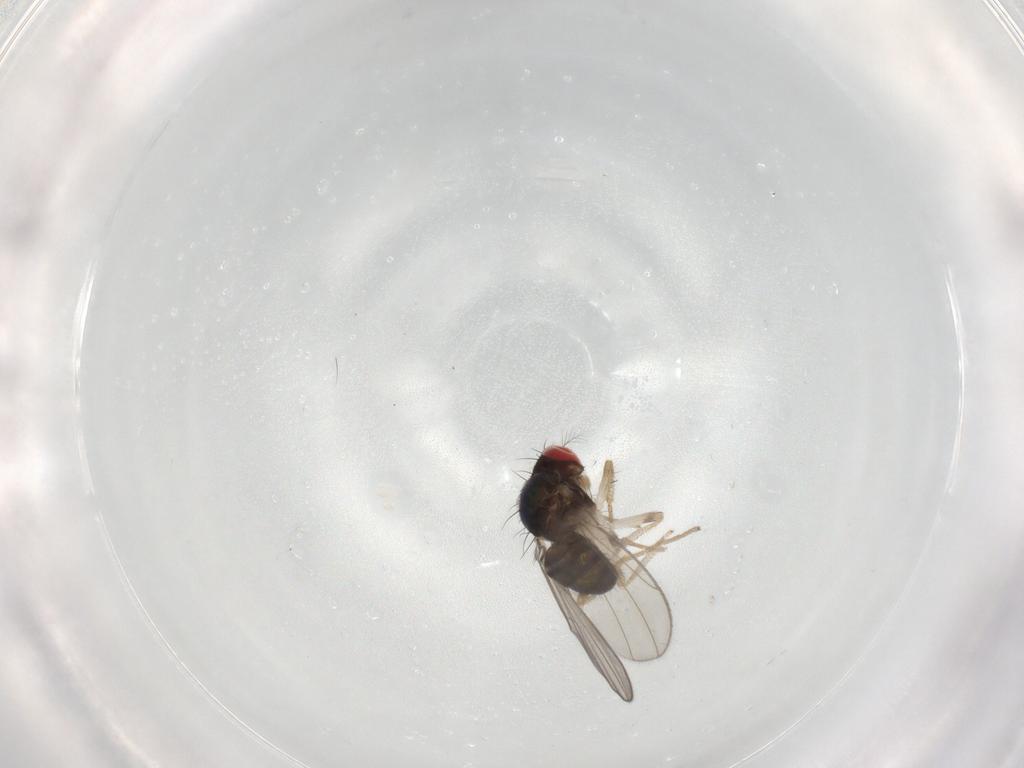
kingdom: Animalia
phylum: Arthropoda
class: Insecta
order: Diptera
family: Drosophilidae
